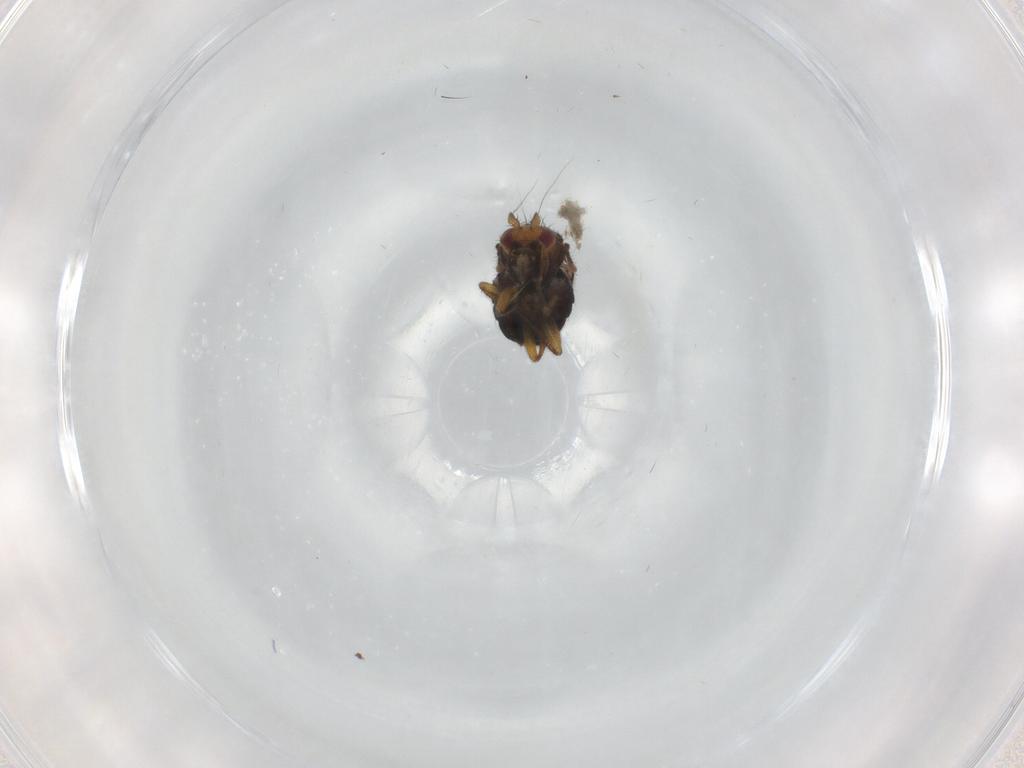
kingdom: Animalia
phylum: Arthropoda
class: Insecta
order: Diptera
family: Sphaeroceridae
